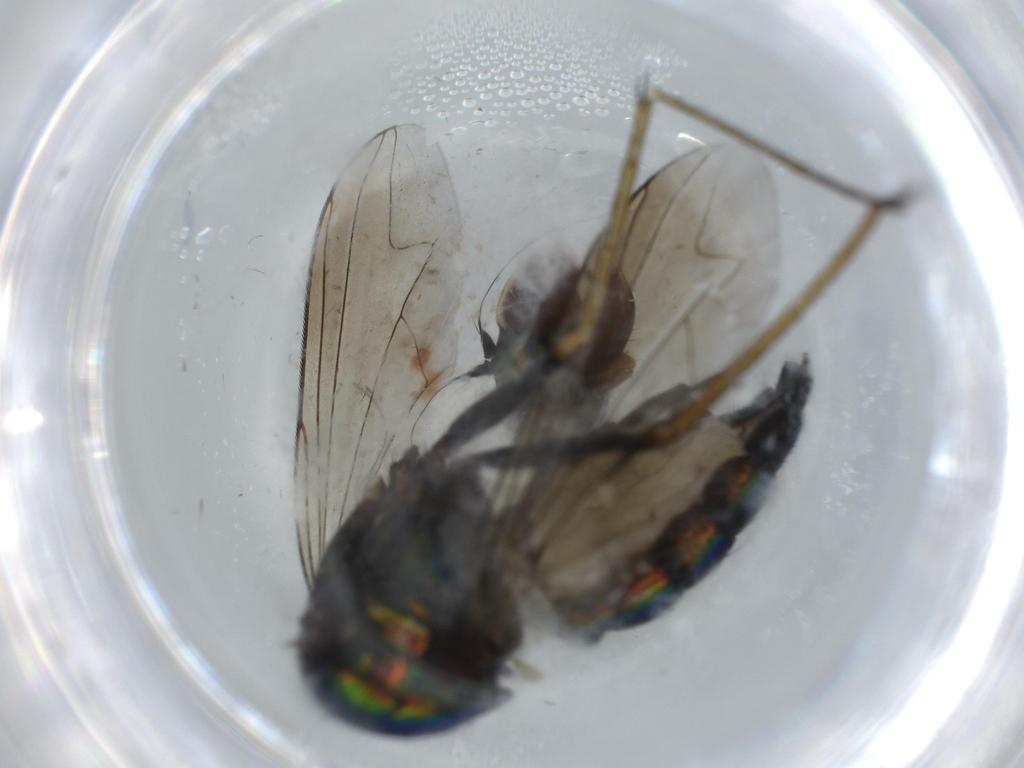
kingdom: Animalia
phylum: Arthropoda
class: Insecta
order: Diptera
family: Dolichopodidae
